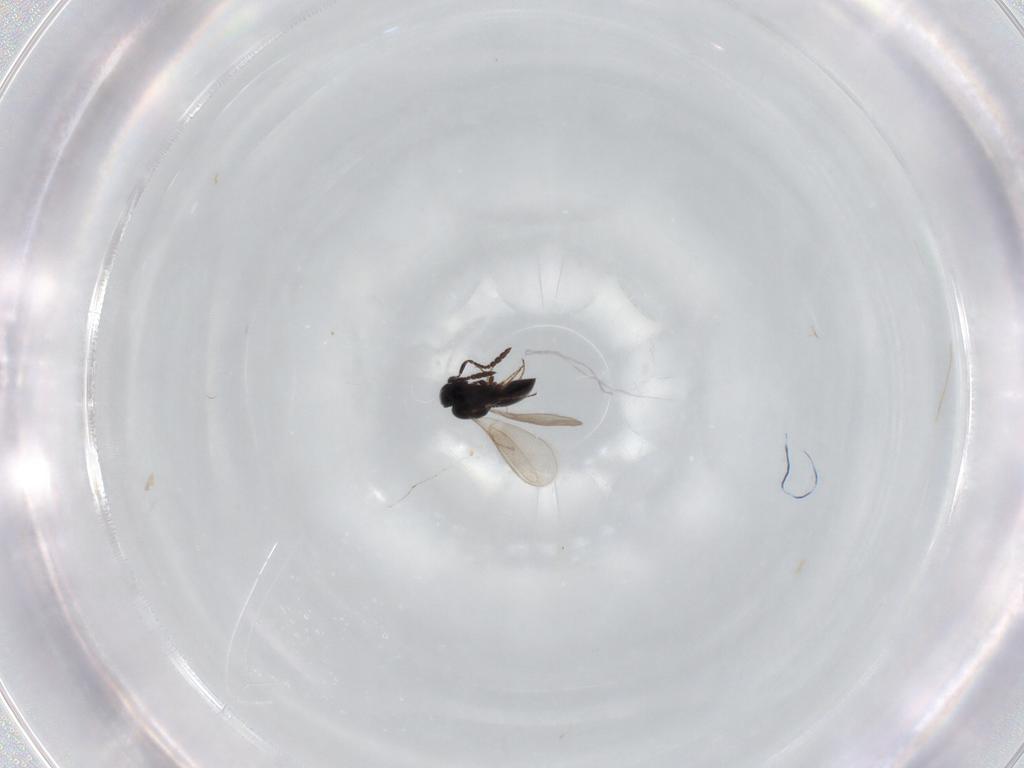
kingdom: Animalia
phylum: Arthropoda
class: Insecta
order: Hymenoptera
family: Scelionidae
